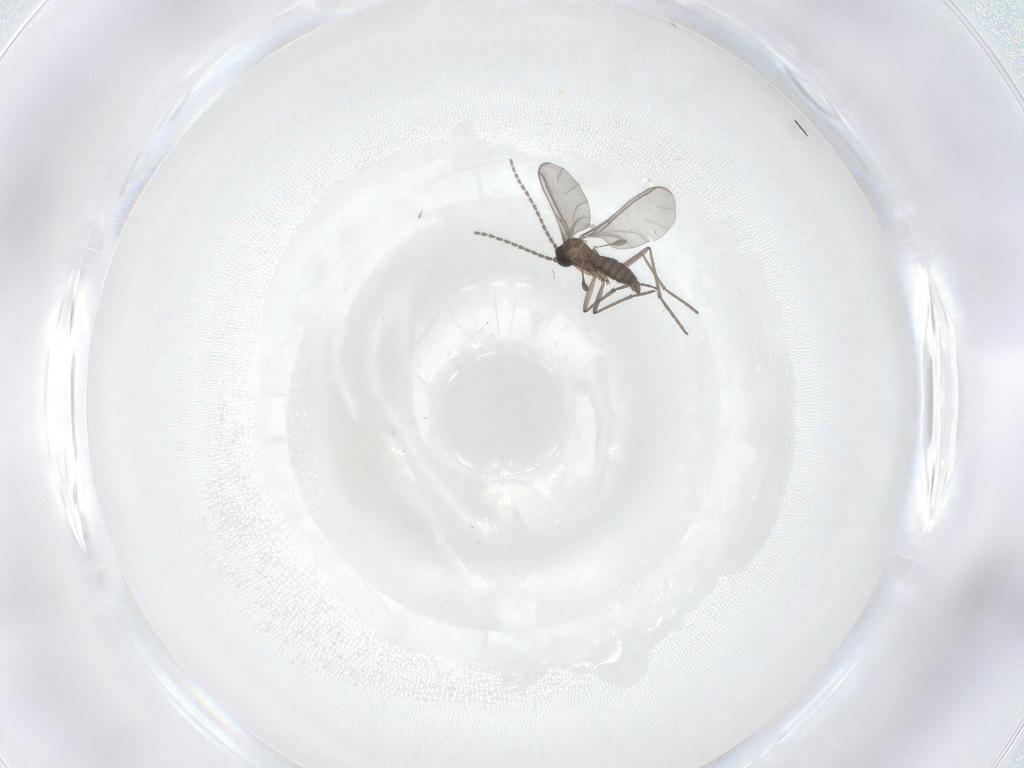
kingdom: Animalia
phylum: Arthropoda
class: Insecta
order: Diptera
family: Sciaridae
